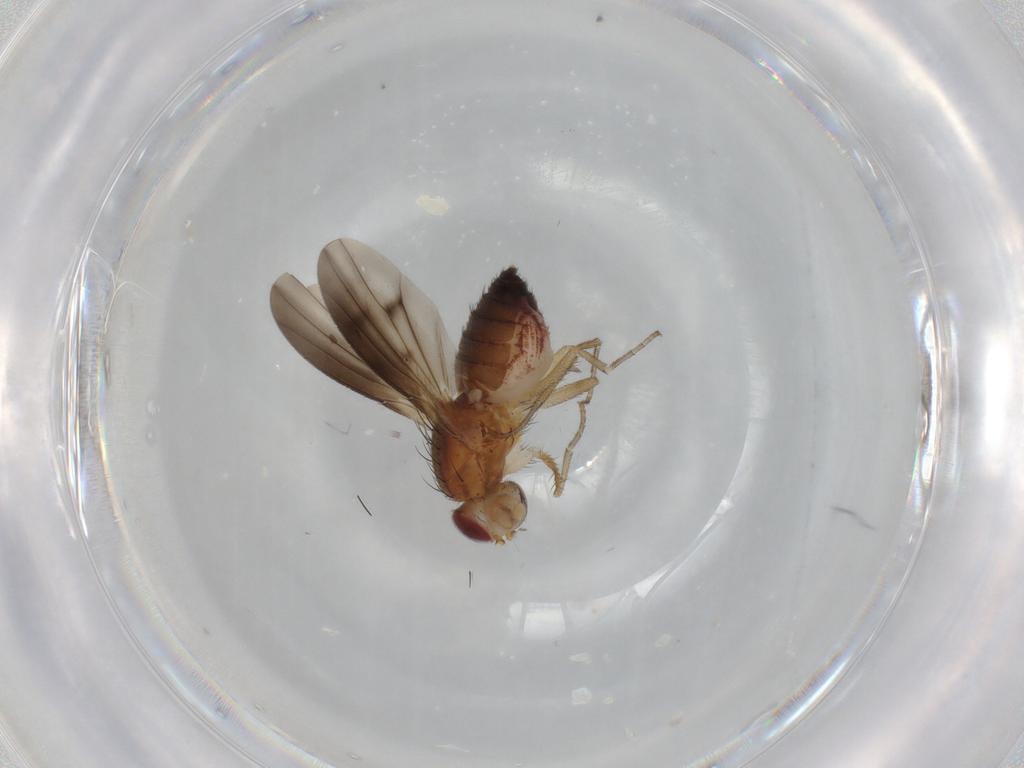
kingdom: Animalia
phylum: Arthropoda
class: Insecta
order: Diptera
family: Heleomyzidae
